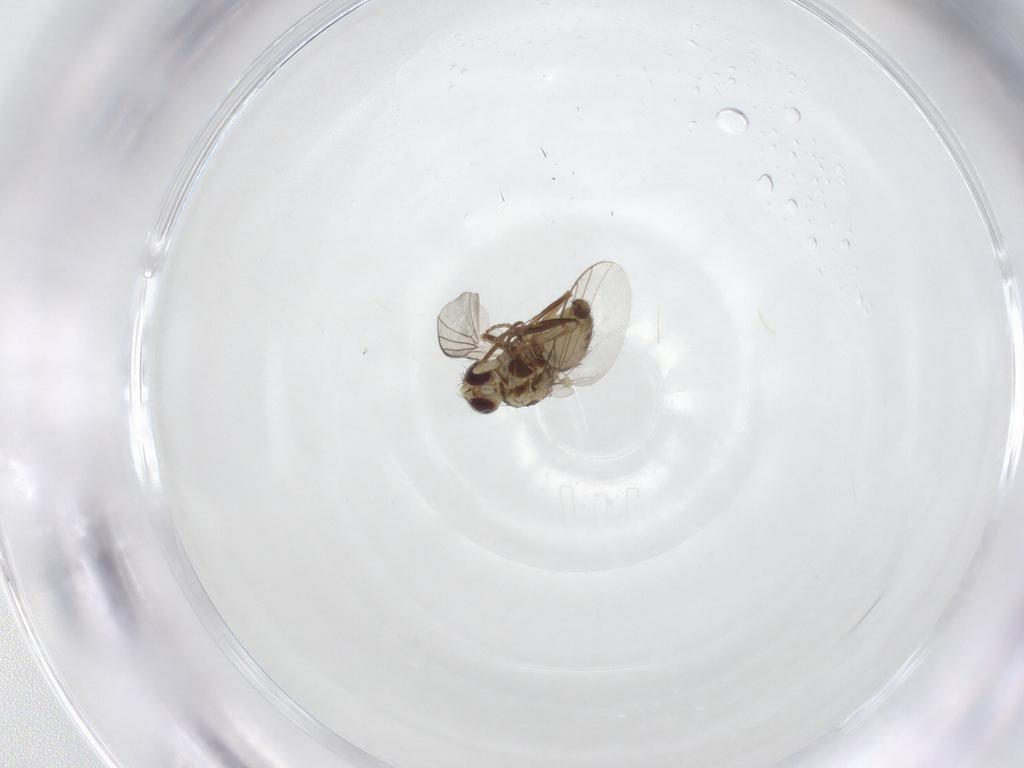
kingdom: Animalia
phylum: Arthropoda
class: Insecta
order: Diptera
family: Carnidae
